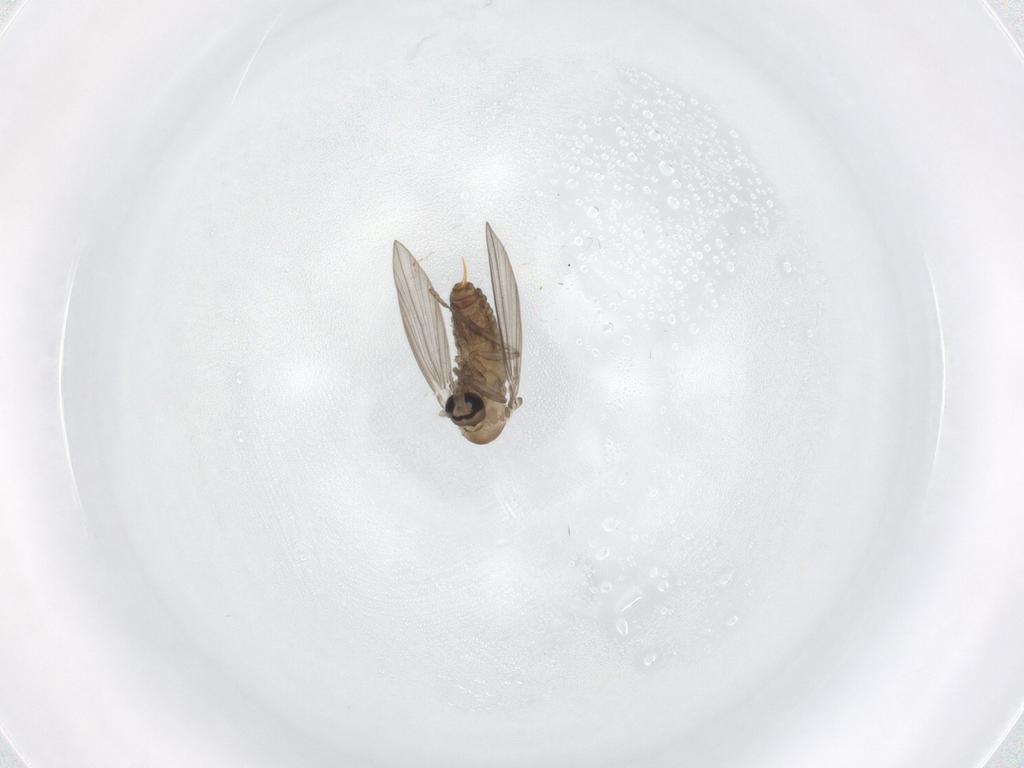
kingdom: Animalia
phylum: Arthropoda
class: Insecta
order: Diptera
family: Psychodidae
